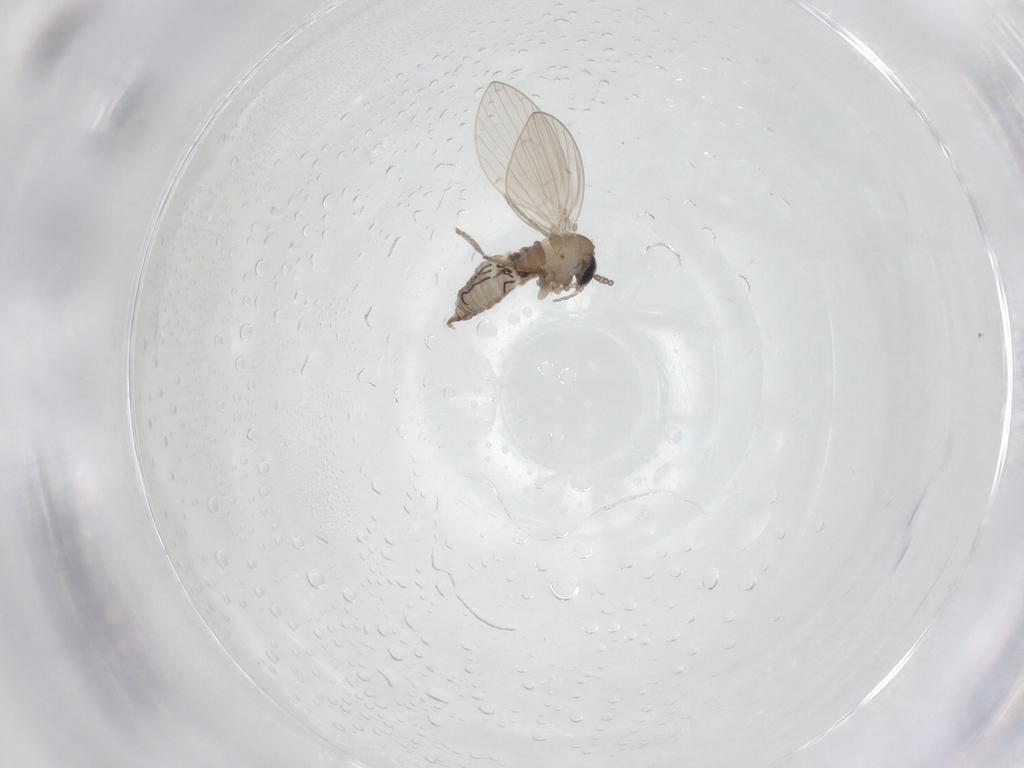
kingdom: Animalia
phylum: Arthropoda
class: Insecta
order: Diptera
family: Psychodidae
